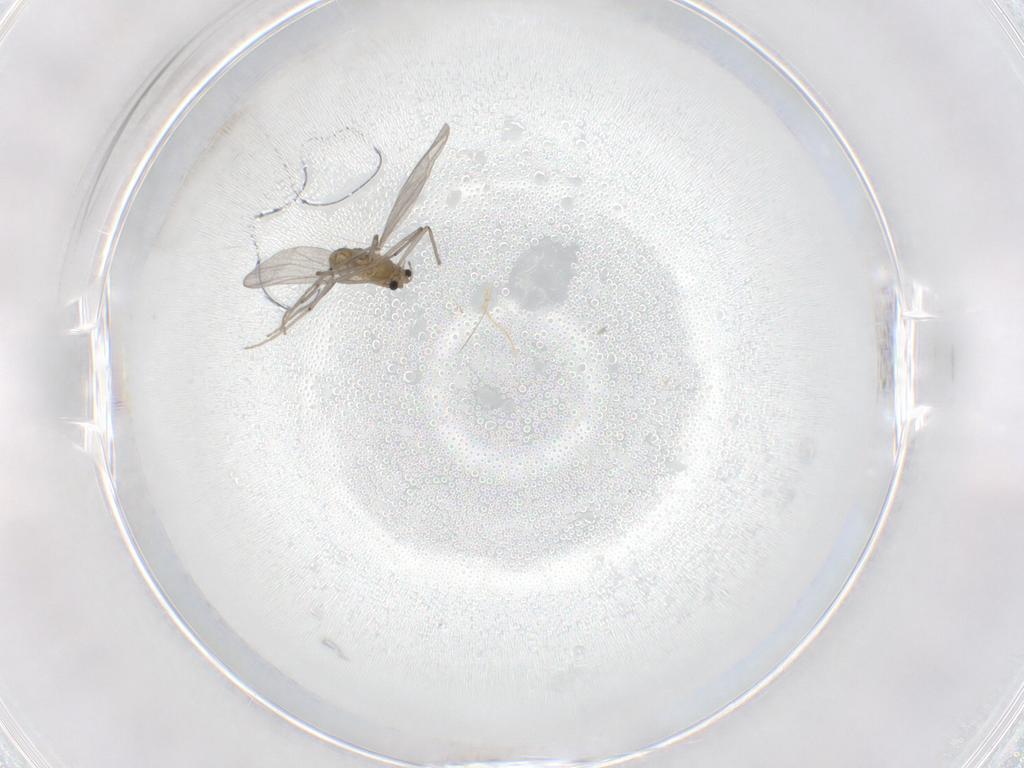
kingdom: Animalia
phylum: Arthropoda
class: Insecta
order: Diptera
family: Chironomidae
